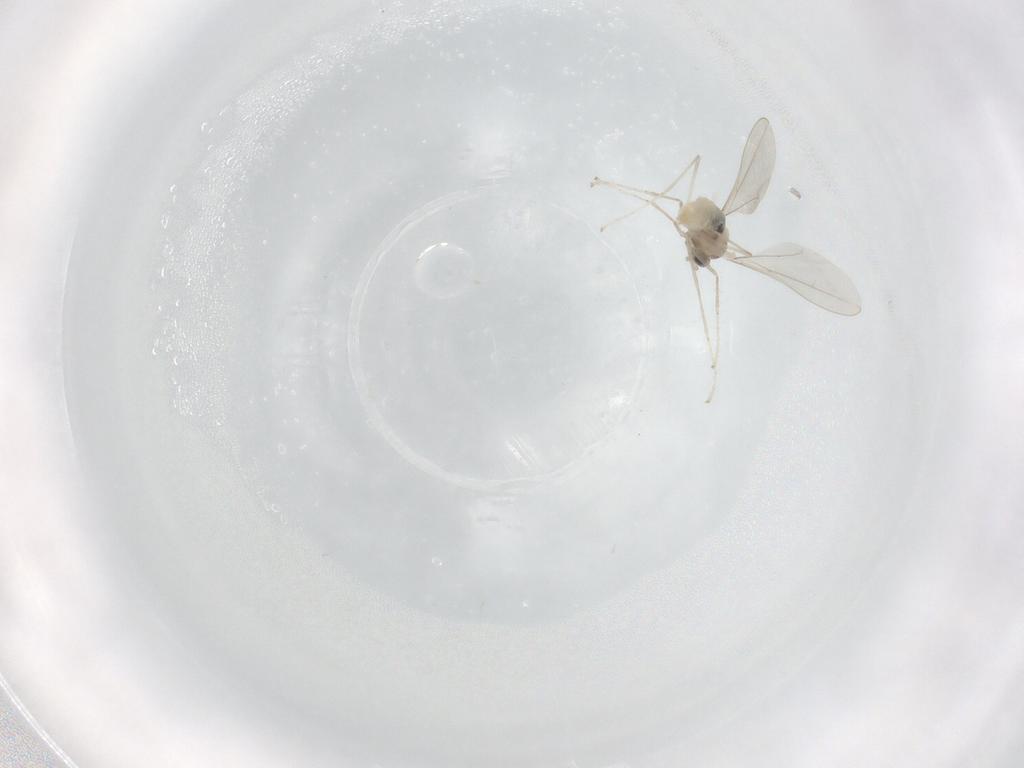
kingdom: Animalia
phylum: Arthropoda
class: Insecta
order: Diptera
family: Cecidomyiidae
